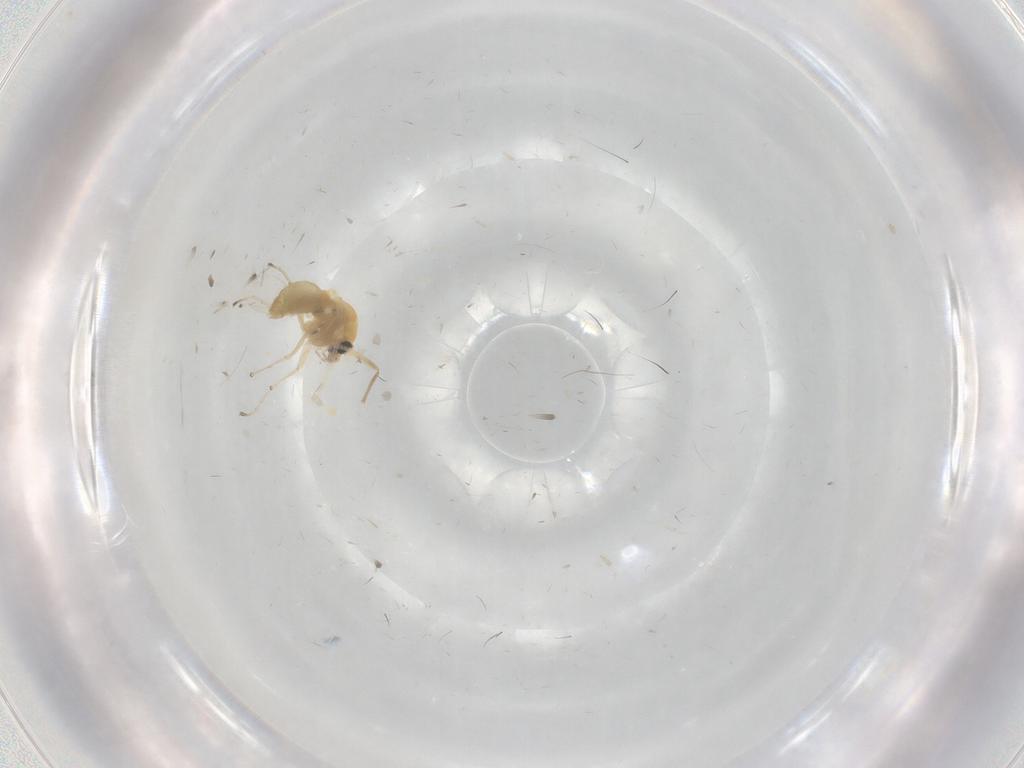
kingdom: Animalia
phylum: Arthropoda
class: Insecta
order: Diptera
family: Chironomidae
